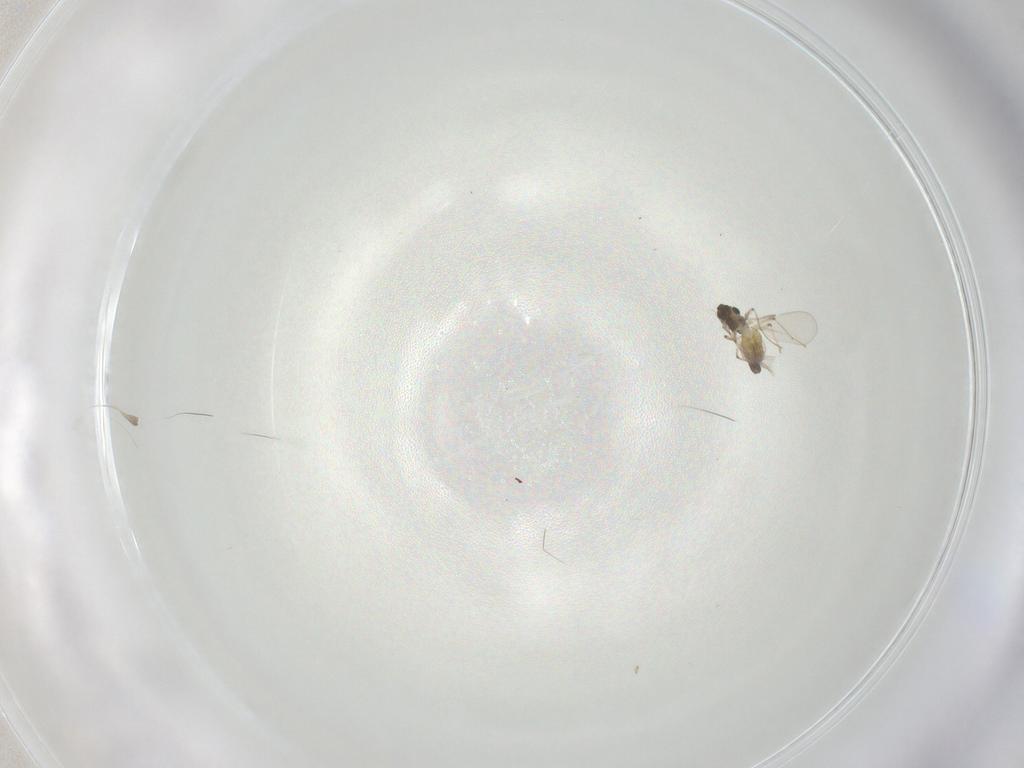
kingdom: Animalia
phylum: Arthropoda
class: Insecta
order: Diptera
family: Chironomidae
